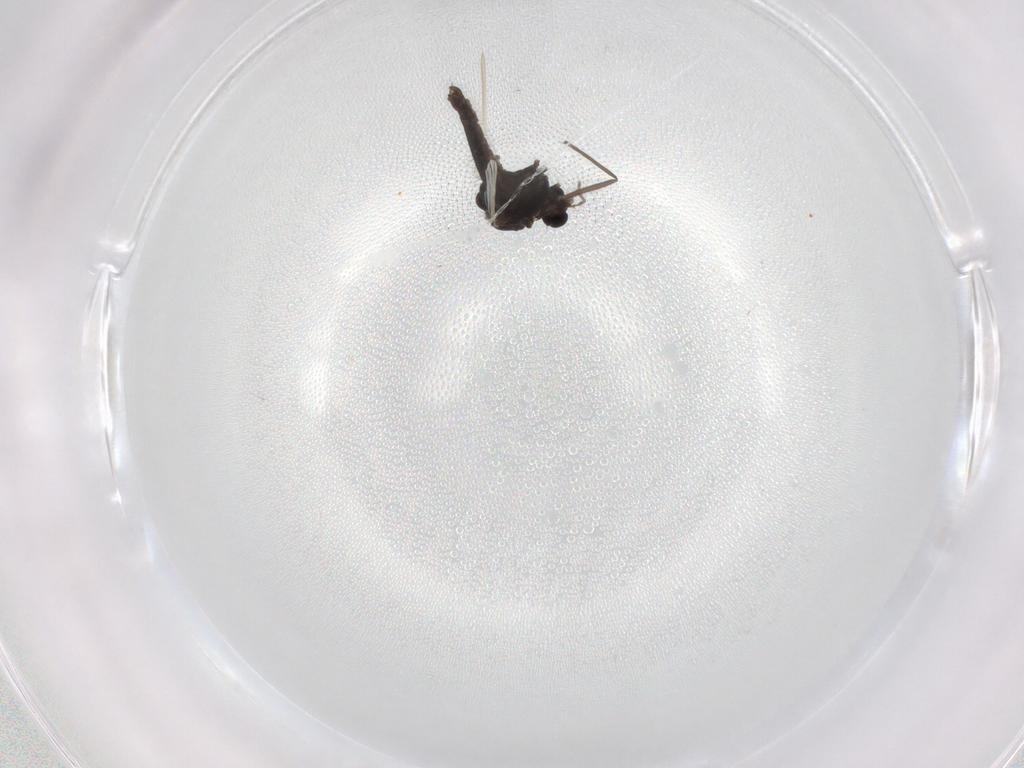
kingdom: Animalia
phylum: Arthropoda
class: Insecta
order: Diptera
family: Chironomidae
